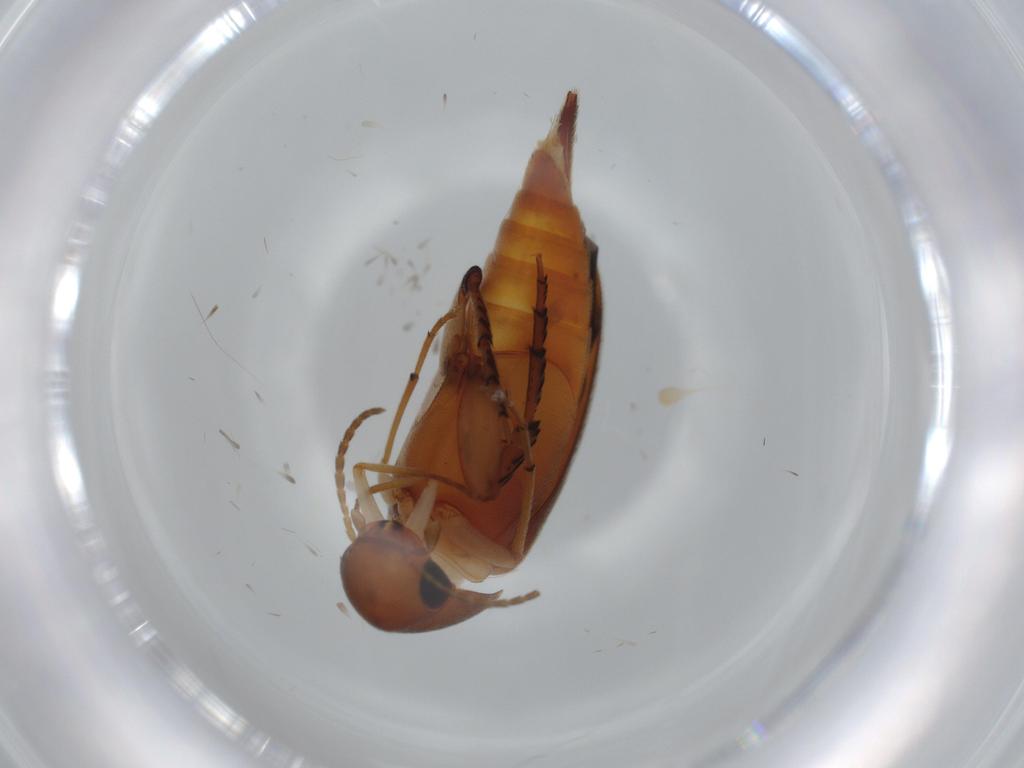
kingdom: Animalia
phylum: Arthropoda
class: Insecta
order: Coleoptera
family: Mordellidae
